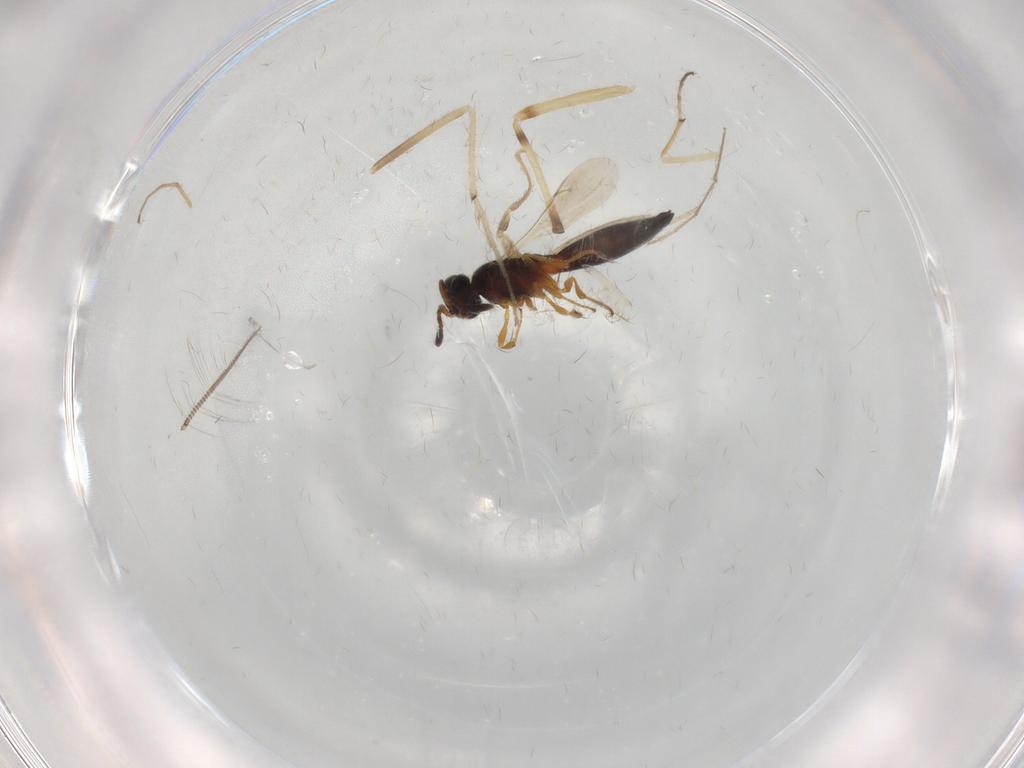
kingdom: Animalia
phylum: Arthropoda
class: Insecta
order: Hymenoptera
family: Scelionidae
